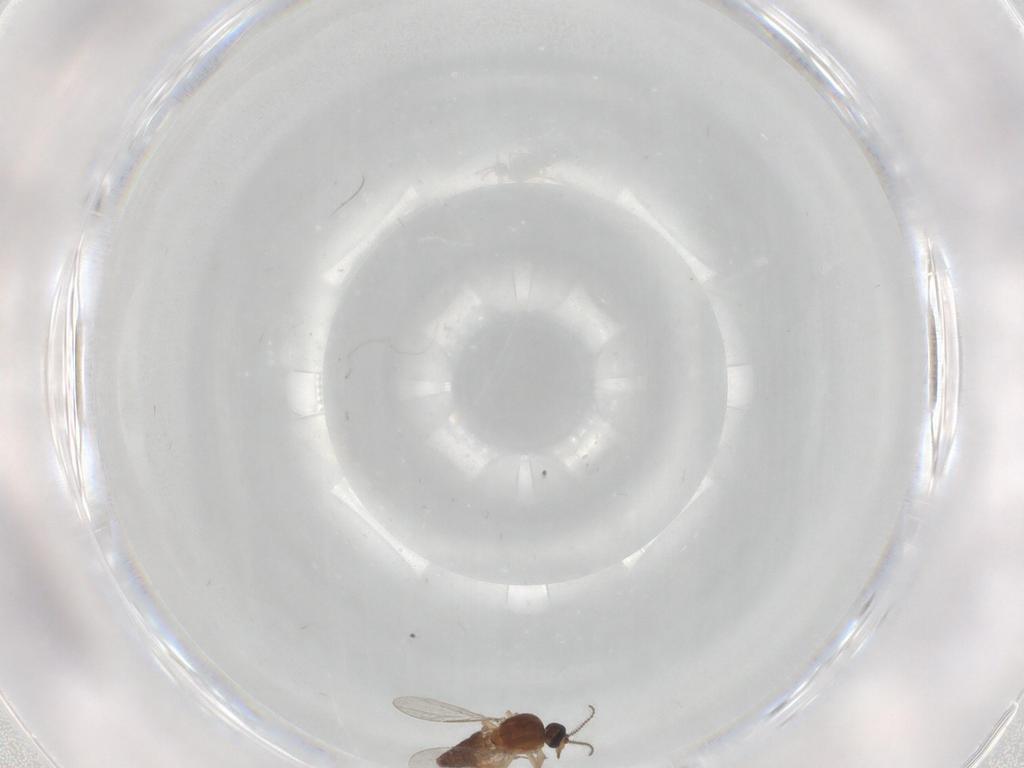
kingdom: Animalia
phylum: Arthropoda
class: Insecta
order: Diptera
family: Ceratopogonidae
